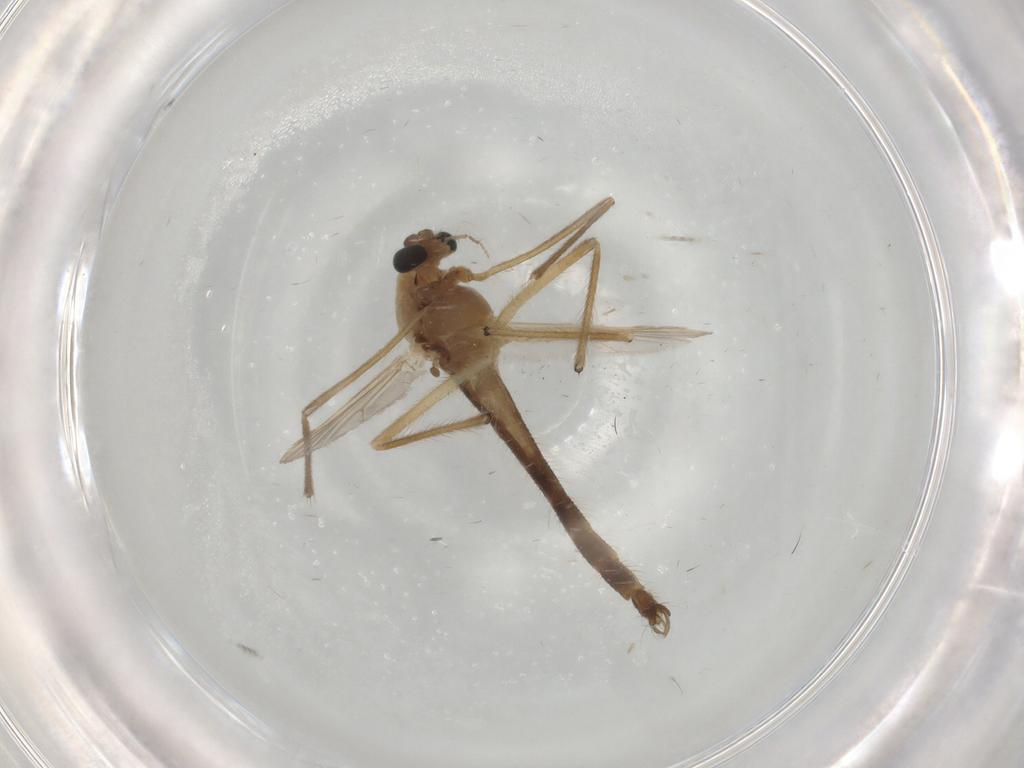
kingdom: Animalia
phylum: Arthropoda
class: Insecta
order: Diptera
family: Chironomidae
